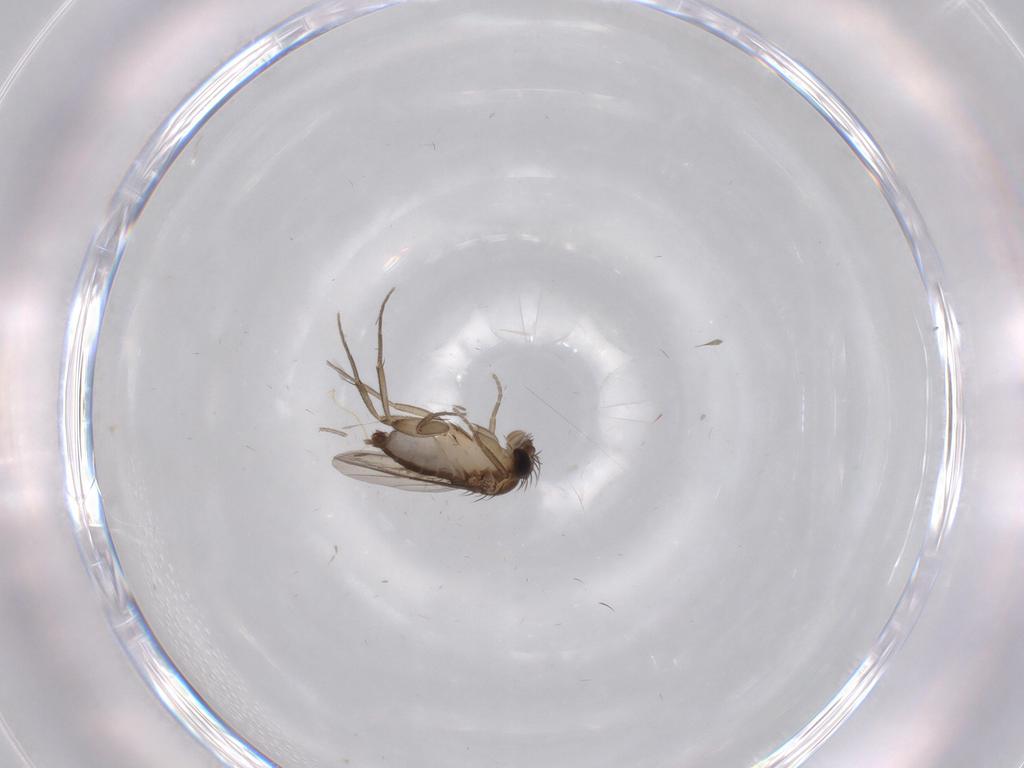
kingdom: Animalia
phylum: Arthropoda
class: Insecta
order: Diptera
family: Phoridae
